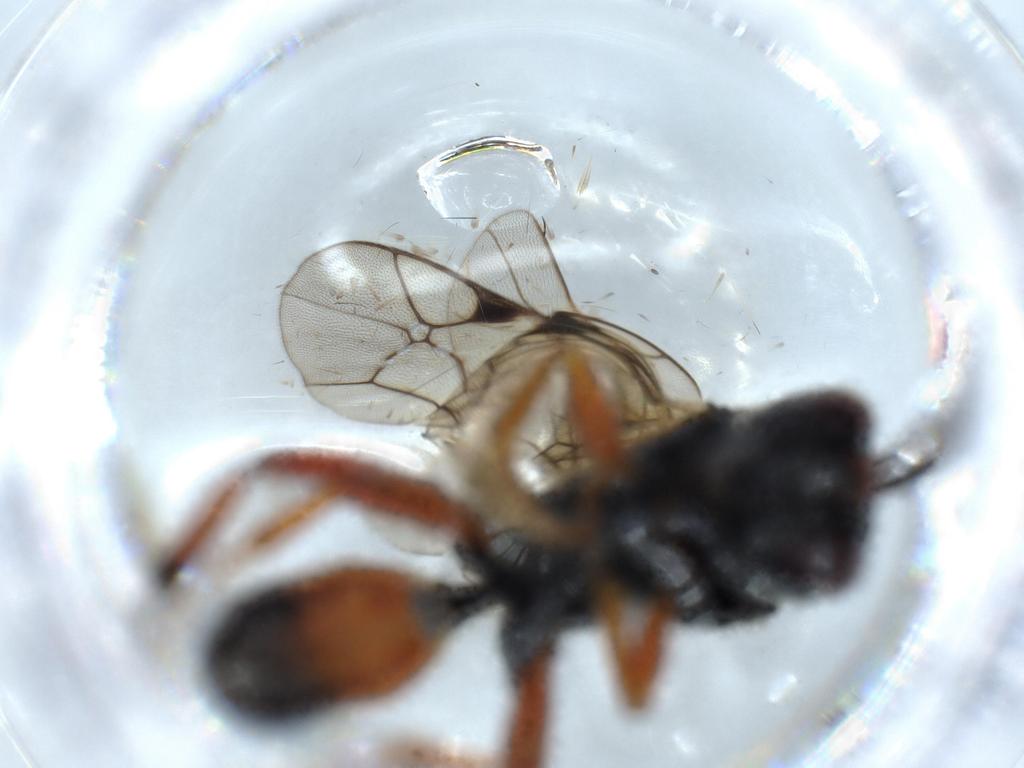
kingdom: Animalia
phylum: Arthropoda
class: Insecta
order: Hymenoptera
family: Ichneumonidae
